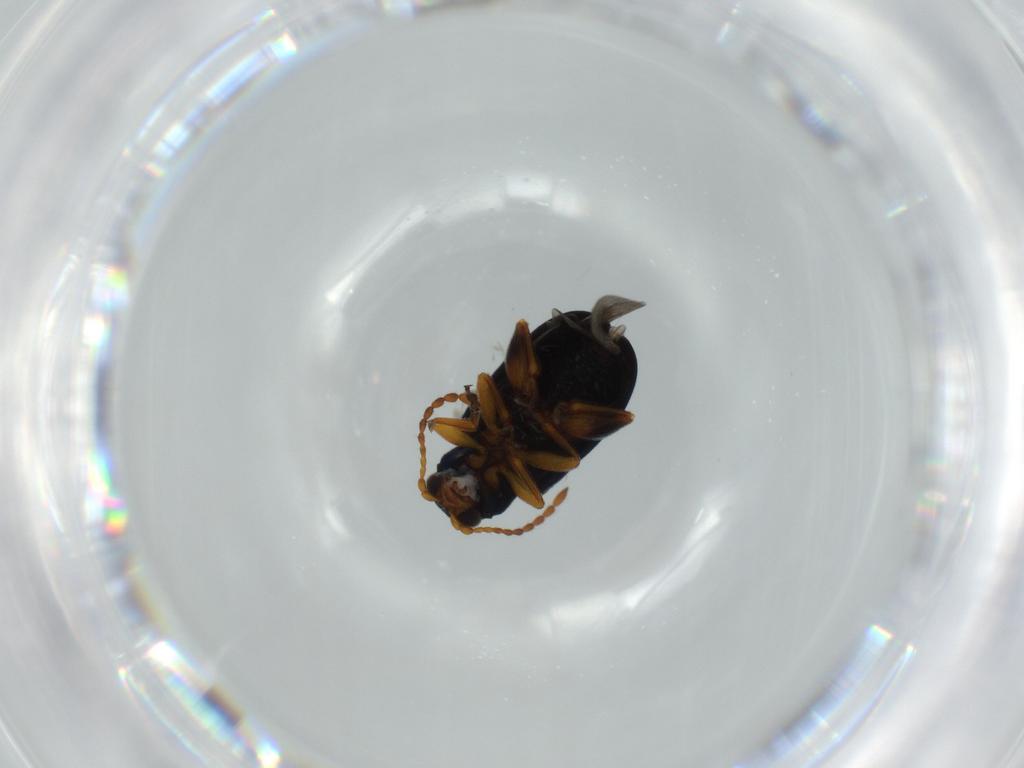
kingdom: Animalia
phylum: Arthropoda
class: Insecta
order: Coleoptera
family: Chrysomelidae
